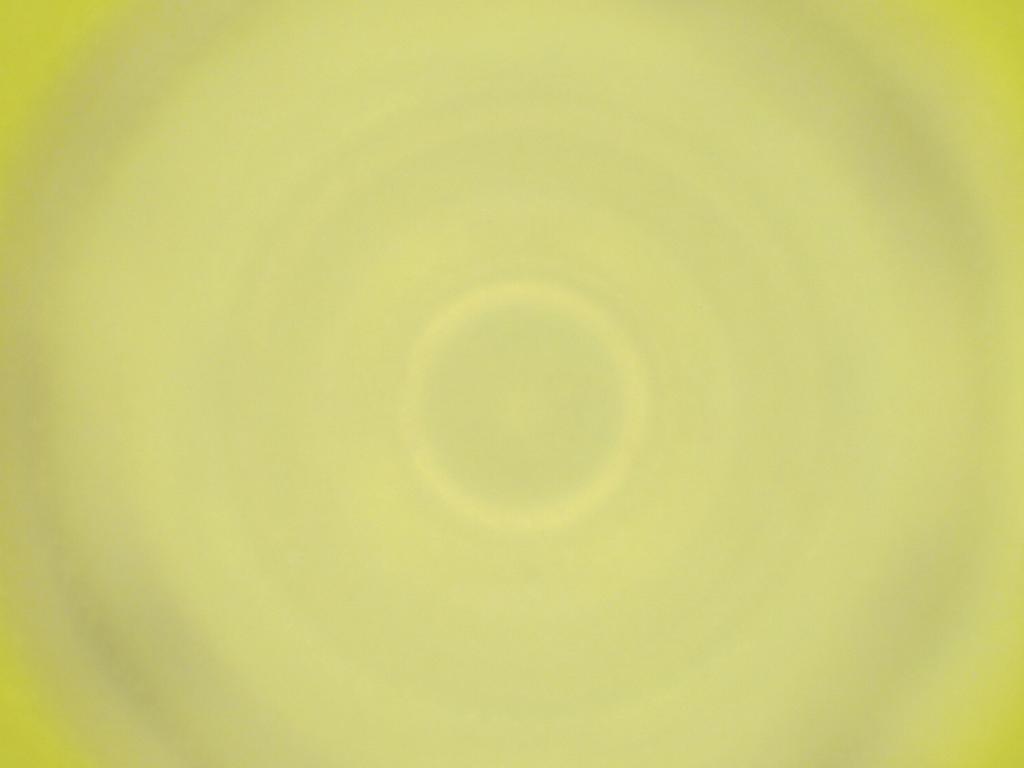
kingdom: Animalia
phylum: Arthropoda
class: Insecta
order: Diptera
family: Cecidomyiidae
